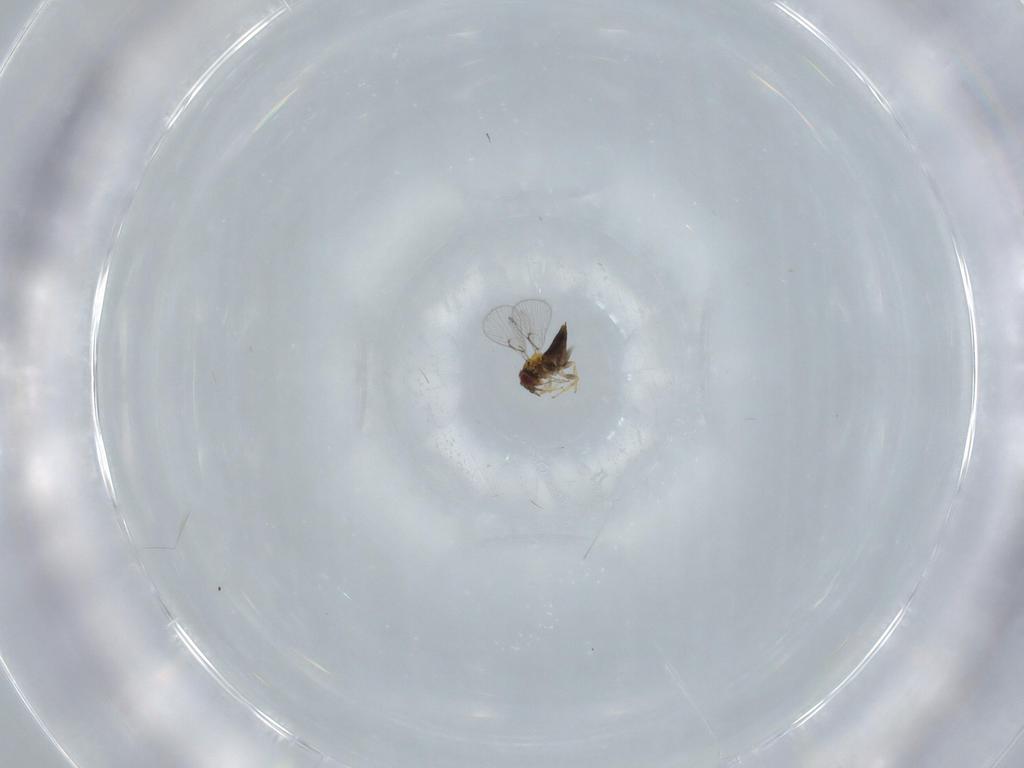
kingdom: Animalia
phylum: Arthropoda
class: Insecta
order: Hymenoptera
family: Trichogrammatidae
